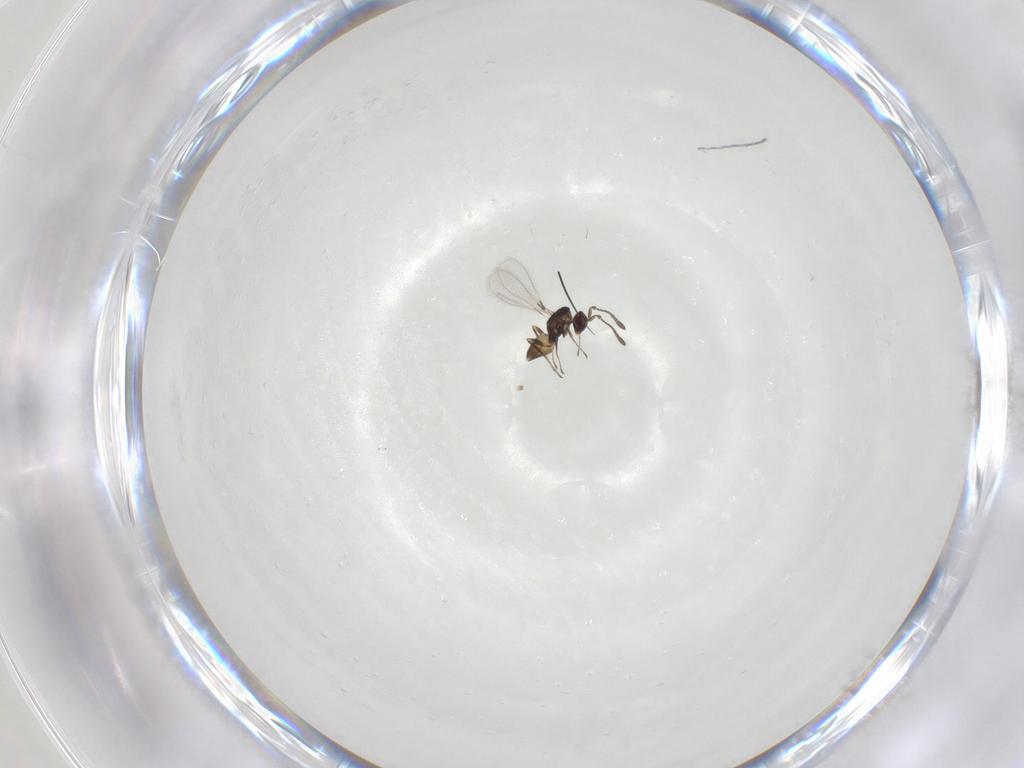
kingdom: Animalia
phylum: Arthropoda
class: Insecta
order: Hymenoptera
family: Mymaridae
